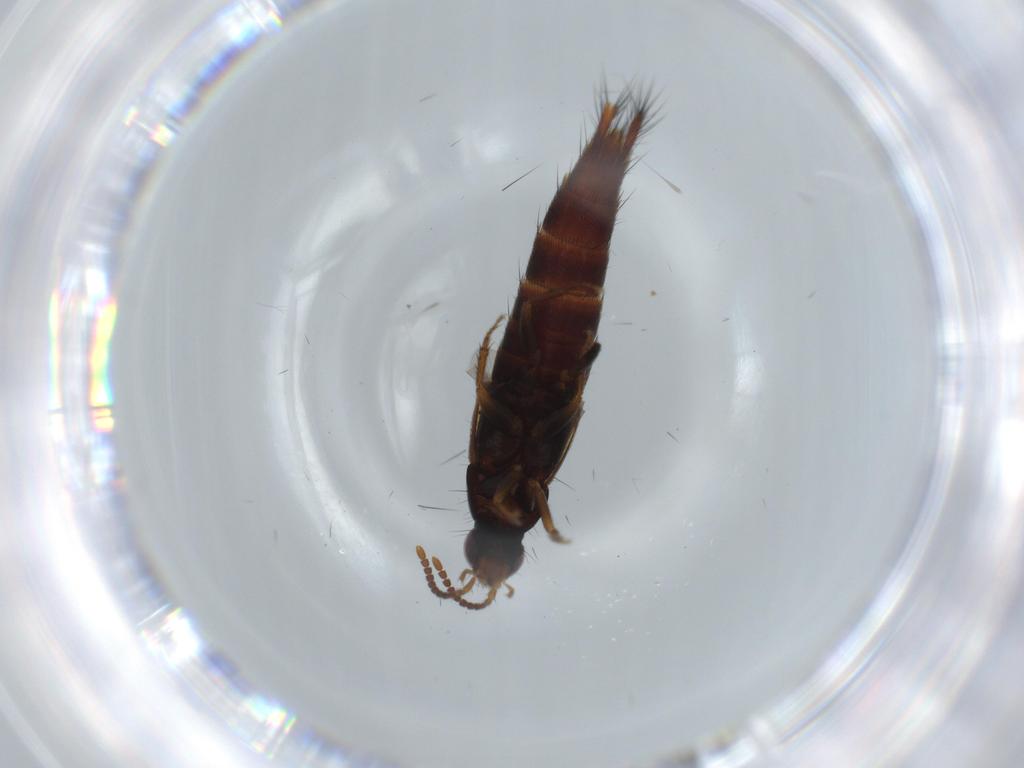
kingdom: Animalia
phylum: Arthropoda
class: Insecta
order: Coleoptera
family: Staphylinidae
